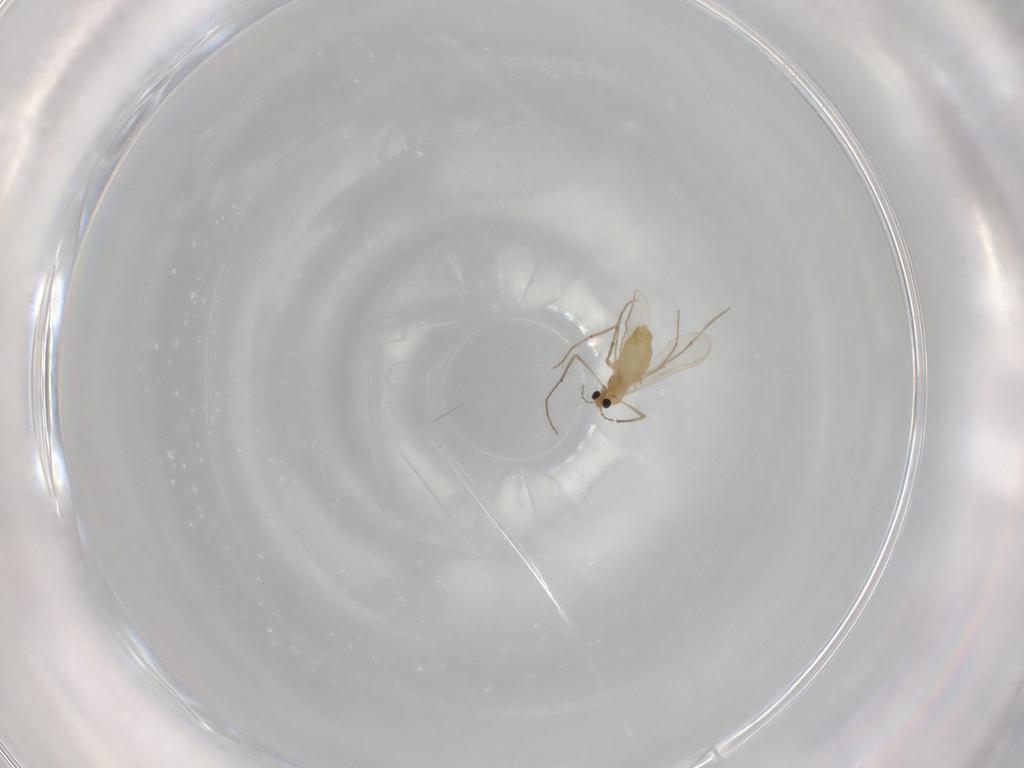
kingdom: Animalia
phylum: Arthropoda
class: Insecta
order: Diptera
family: Chironomidae
